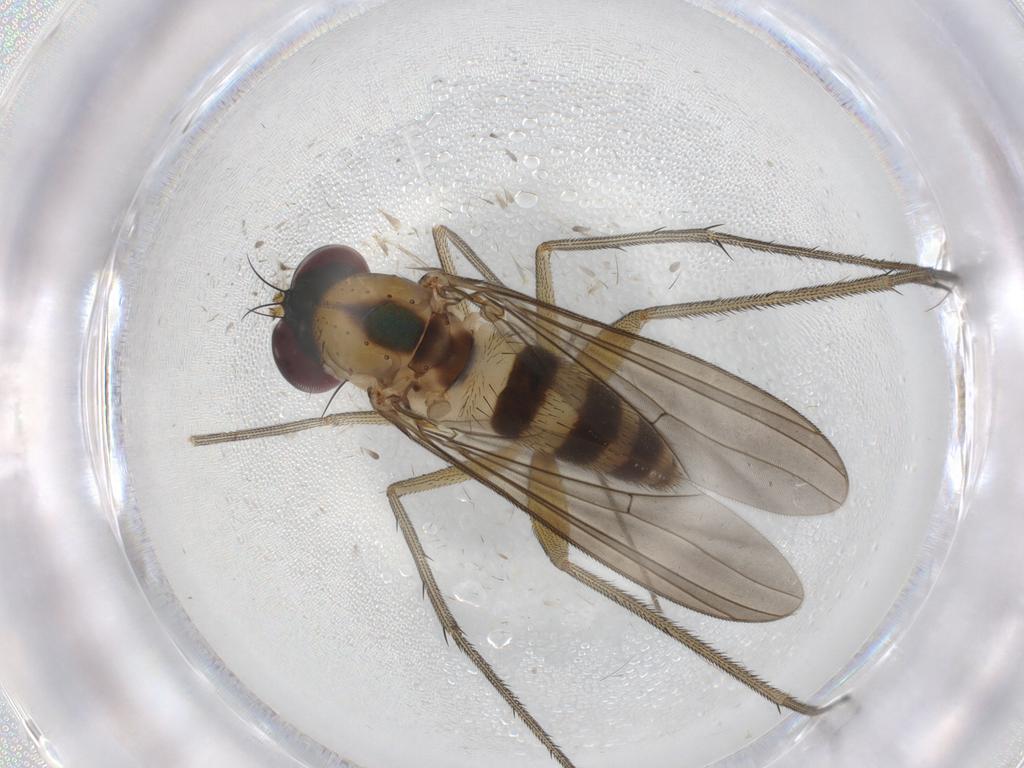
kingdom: Animalia
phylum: Arthropoda
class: Insecta
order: Diptera
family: Dolichopodidae
